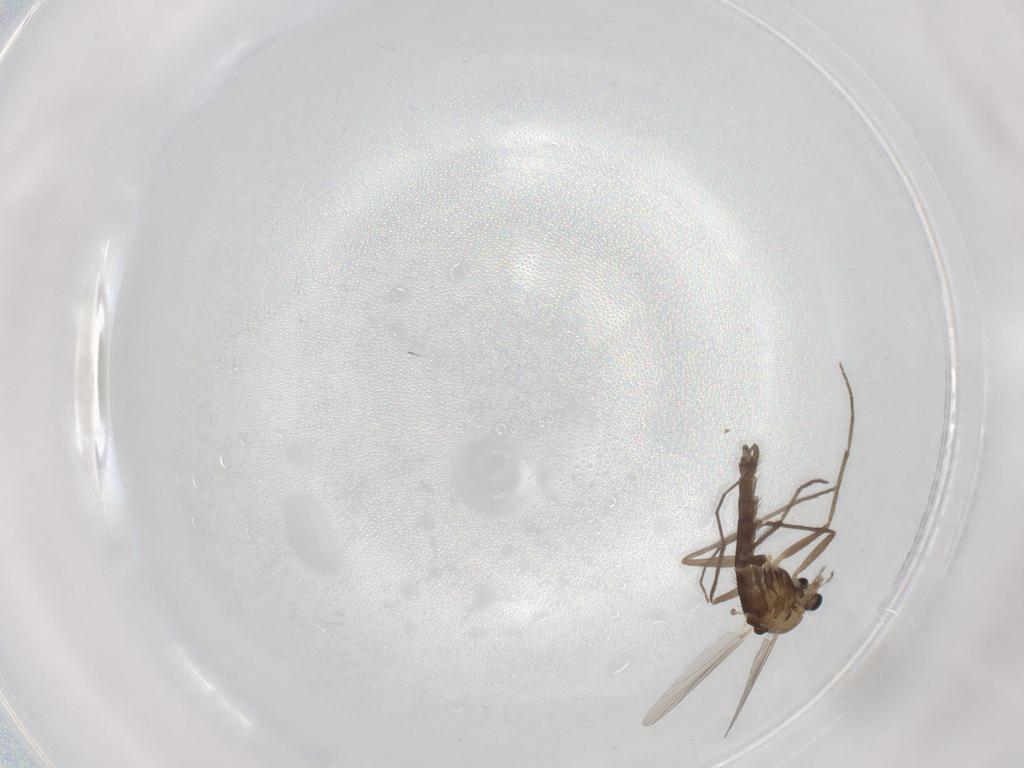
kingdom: Animalia
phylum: Arthropoda
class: Insecta
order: Diptera
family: Chironomidae
